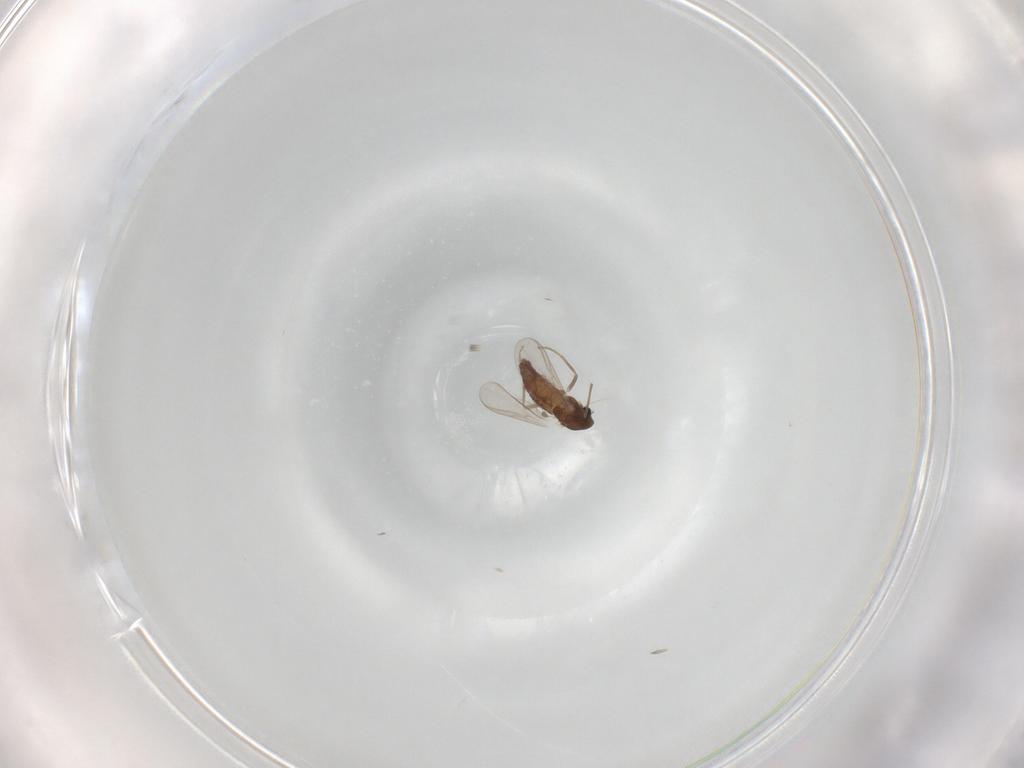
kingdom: Animalia
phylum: Arthropoda
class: Insecta
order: Diptera
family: Chironomidae
